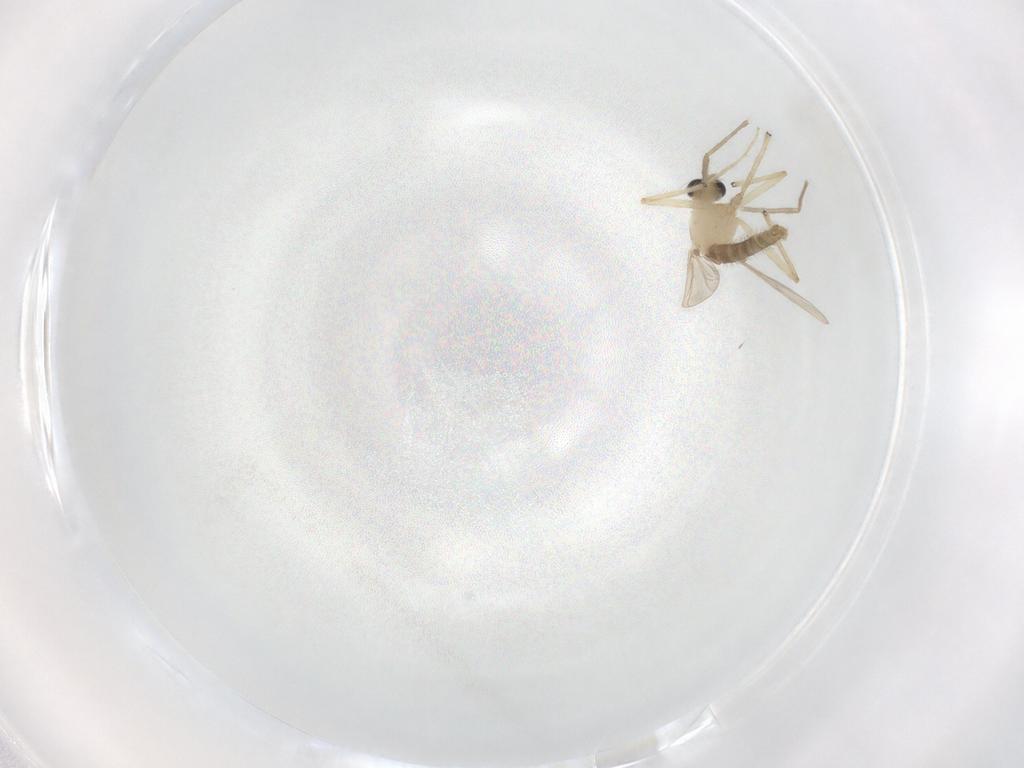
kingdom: Animalia
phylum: Arthropoda
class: Insecta
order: Diptera
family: Chironomidae
